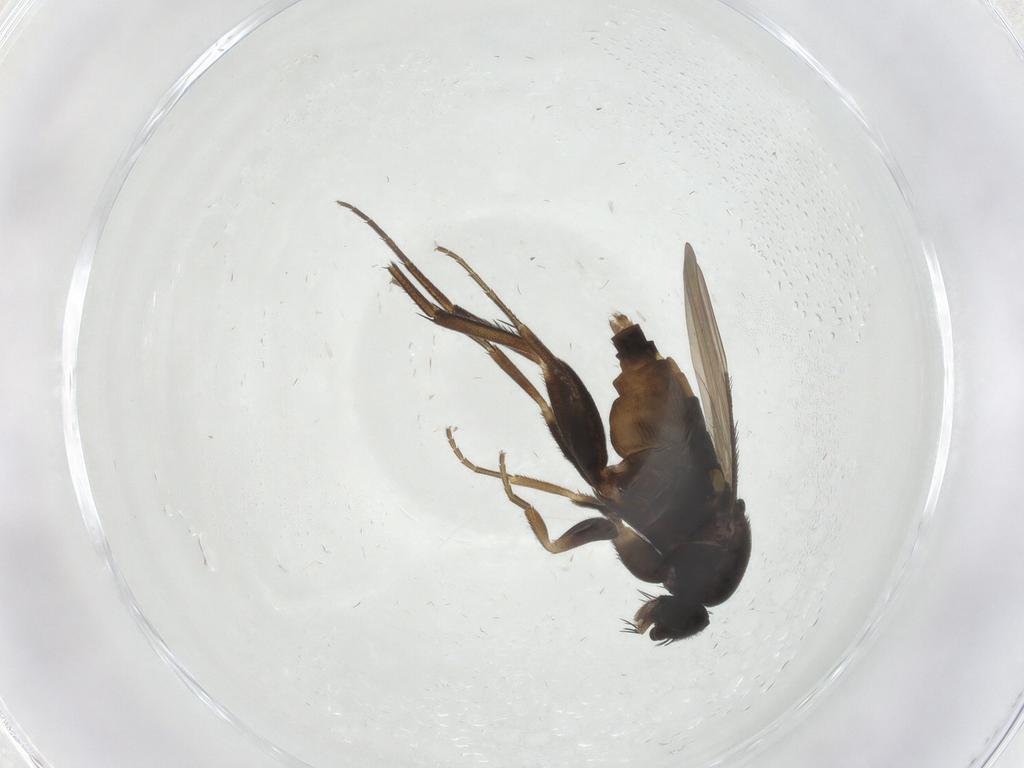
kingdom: Animalia
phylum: Arthropoda
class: Insecta
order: Diptera
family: Phoridae
